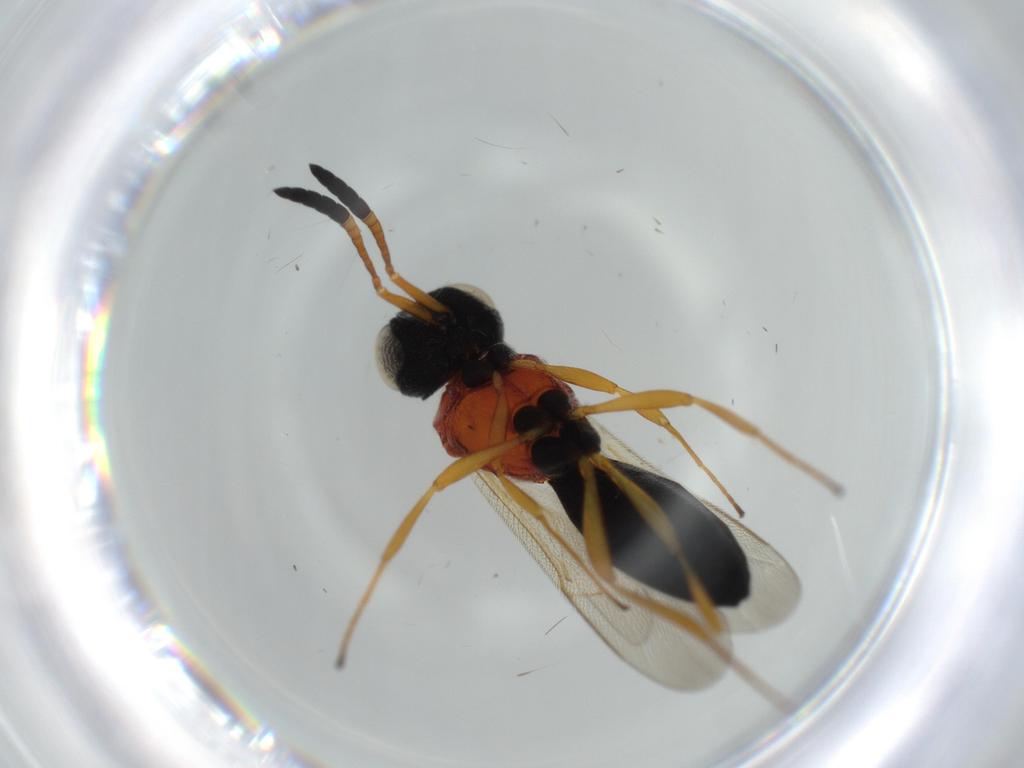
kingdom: Animalia
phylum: Arthropoda
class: Insecta
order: Hymenoptera
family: Scelionidae
